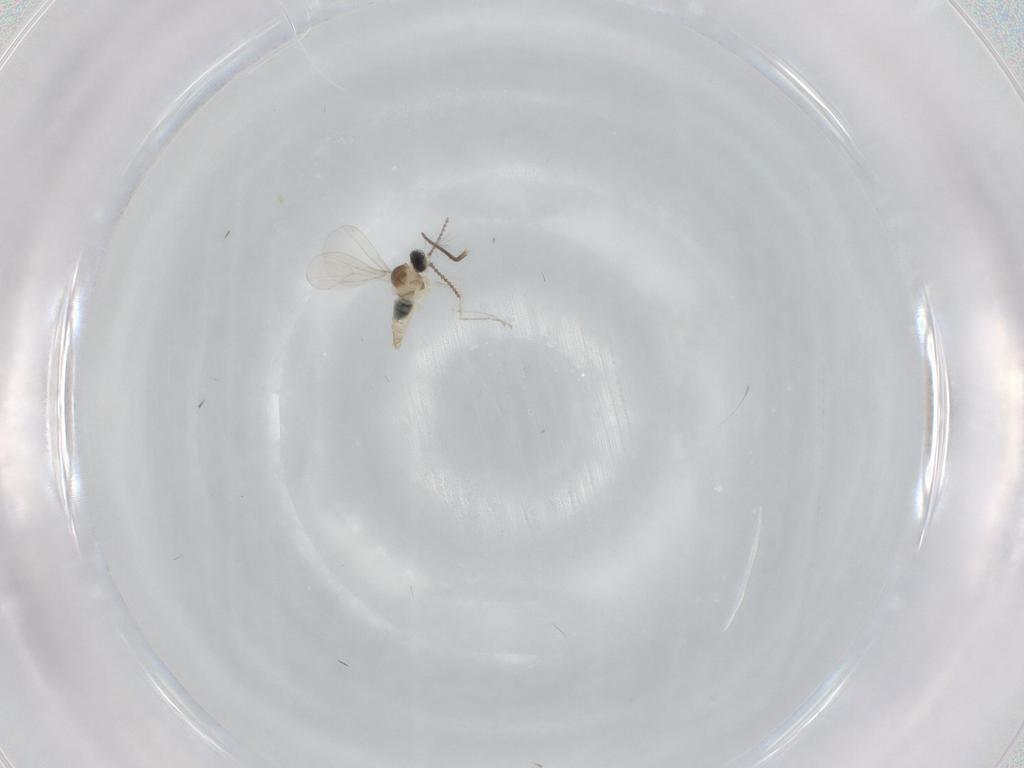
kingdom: Animalia
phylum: Arthropoda
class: Insecta
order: Diptera
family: Cecidomyiidae
